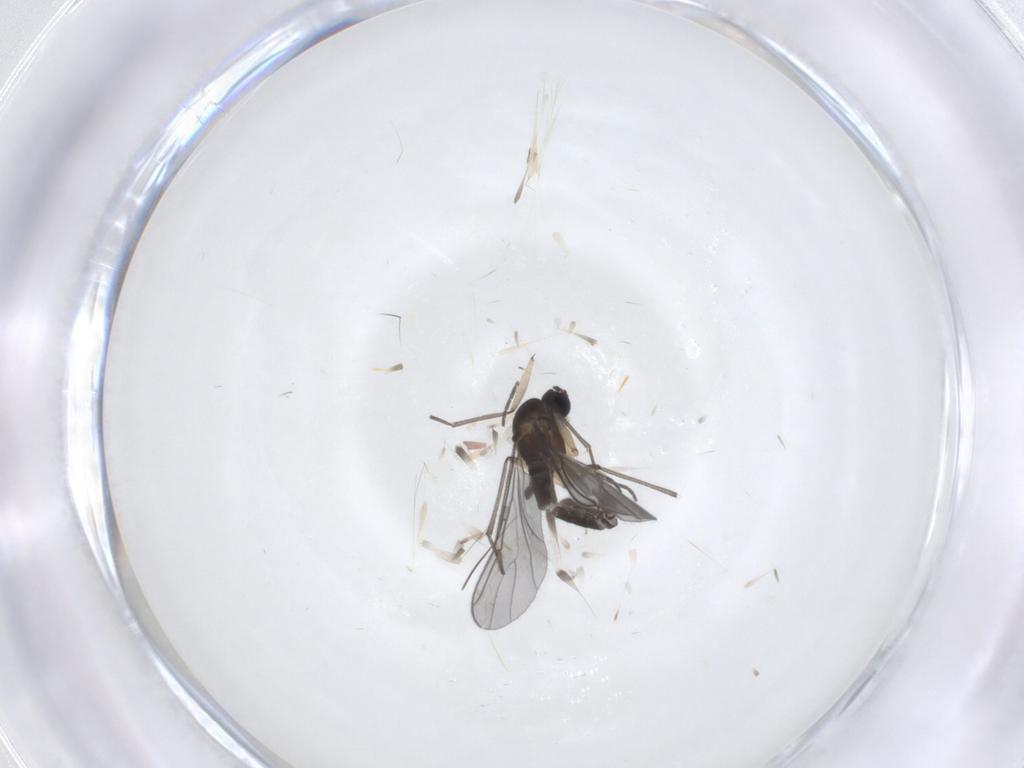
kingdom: Animalia
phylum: Arthropoda
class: Insecta
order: Diptera
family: Sciaridae
